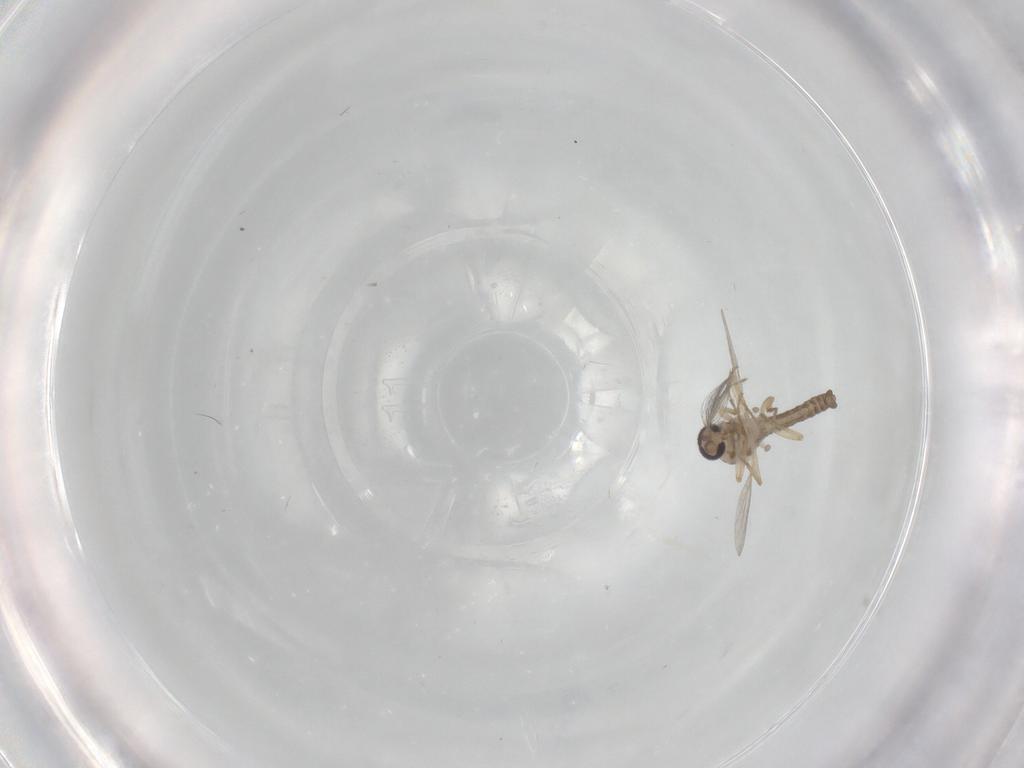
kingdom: Animalia
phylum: Arthropoda
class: Insecta
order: Diptera
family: Ceratopogonidae
